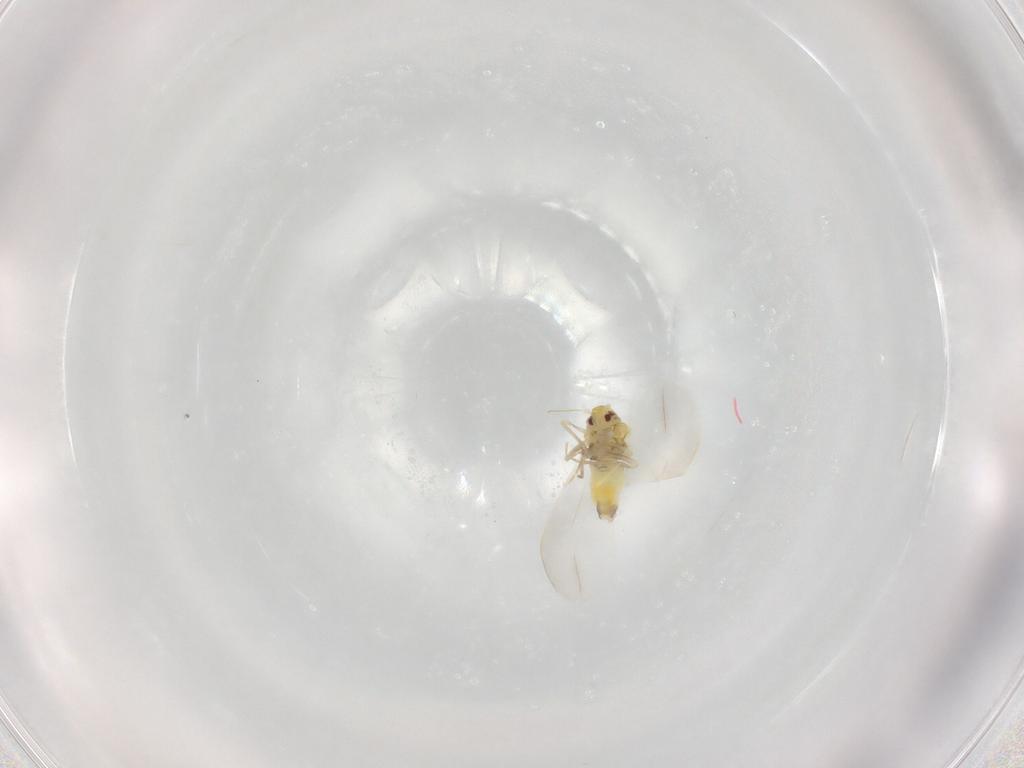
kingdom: Animalia
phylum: Arthropoda
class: Insecta
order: Hemiptera
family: Aleyrodidae
